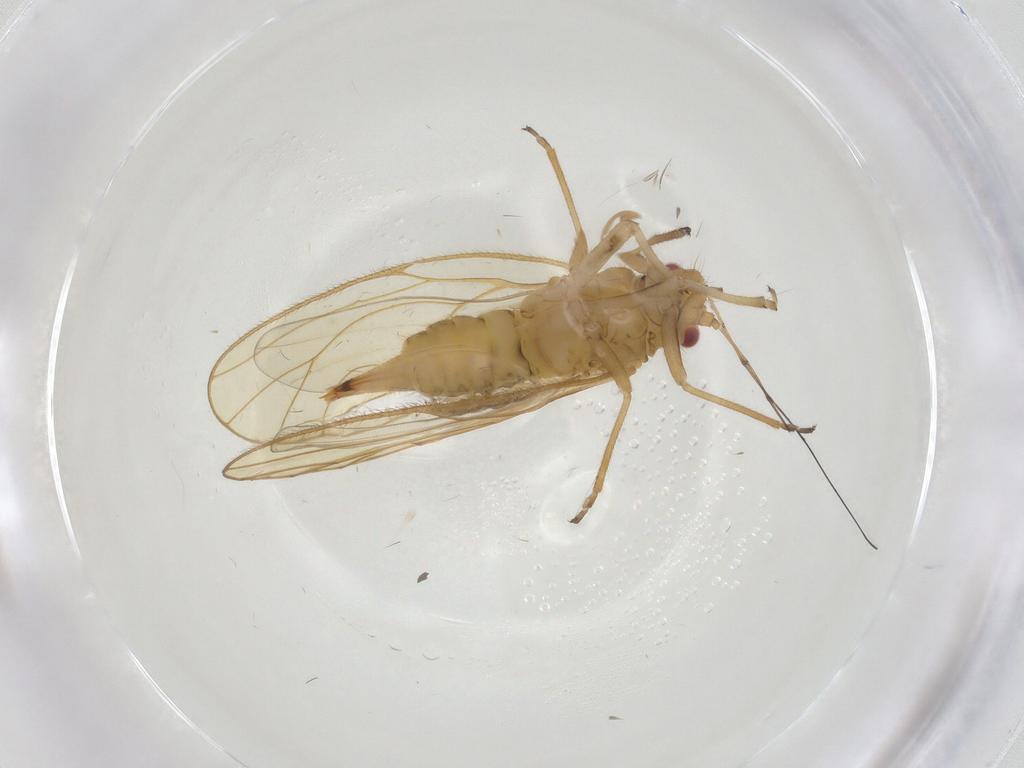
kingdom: Animalia
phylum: Arthropoda
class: Insecta
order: Hemiptera
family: Psyllidae
